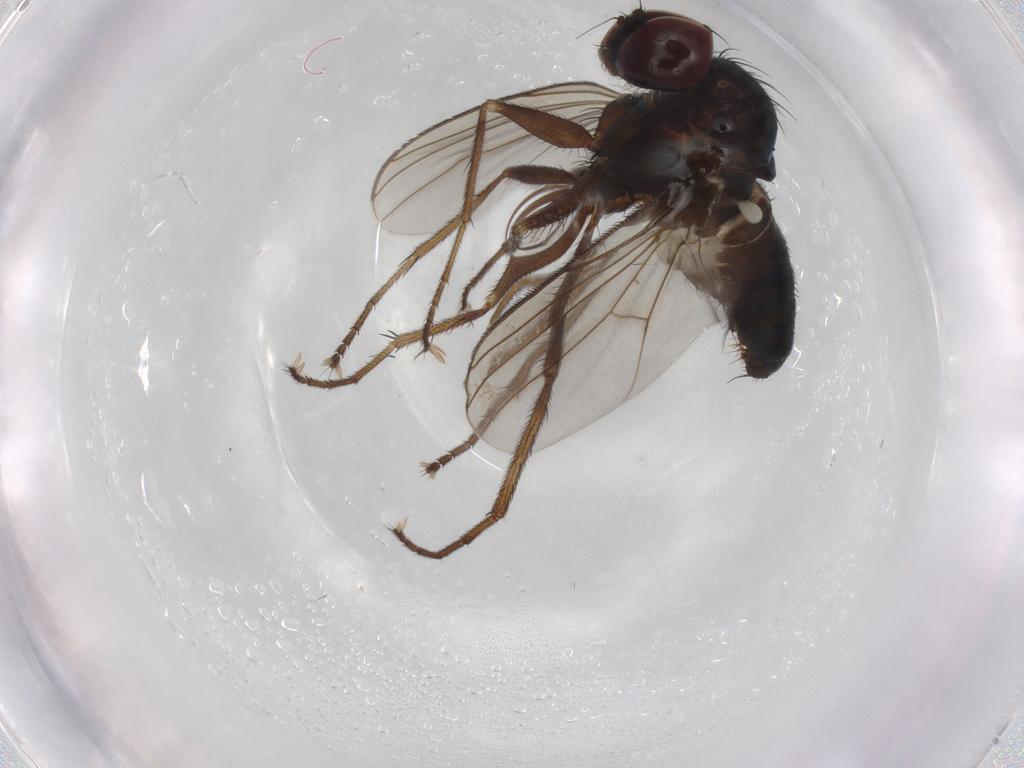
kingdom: Animalia
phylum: Arthropoda
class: Insecta
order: Diptera
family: Dolichopodidae
